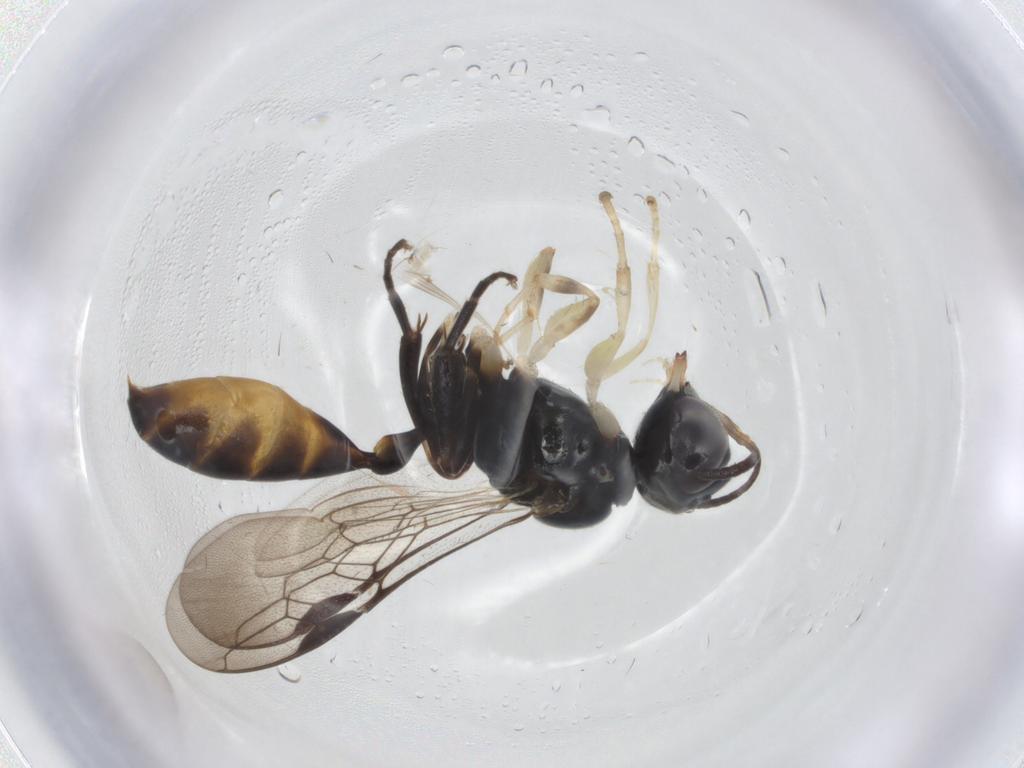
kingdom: Animalia
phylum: Arthropoda
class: Insecta
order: Hymenoptera
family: Crabronidae
